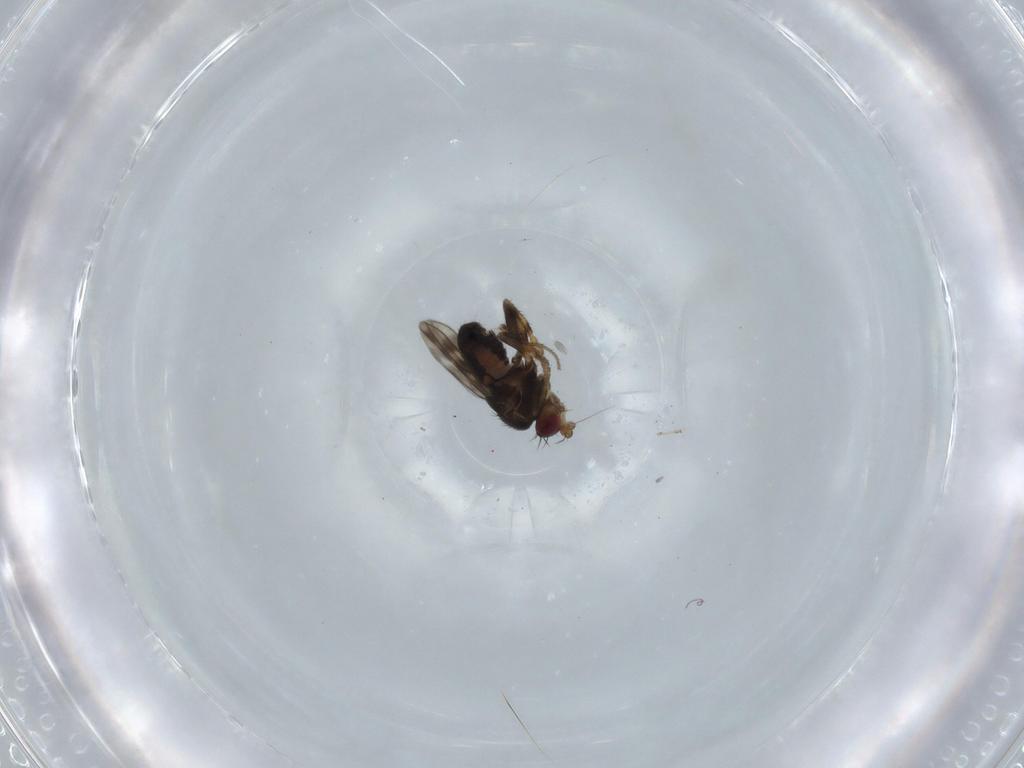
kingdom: Animalia
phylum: Arthropoda
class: Insecta
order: Diptera
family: Sphaeroceridae
